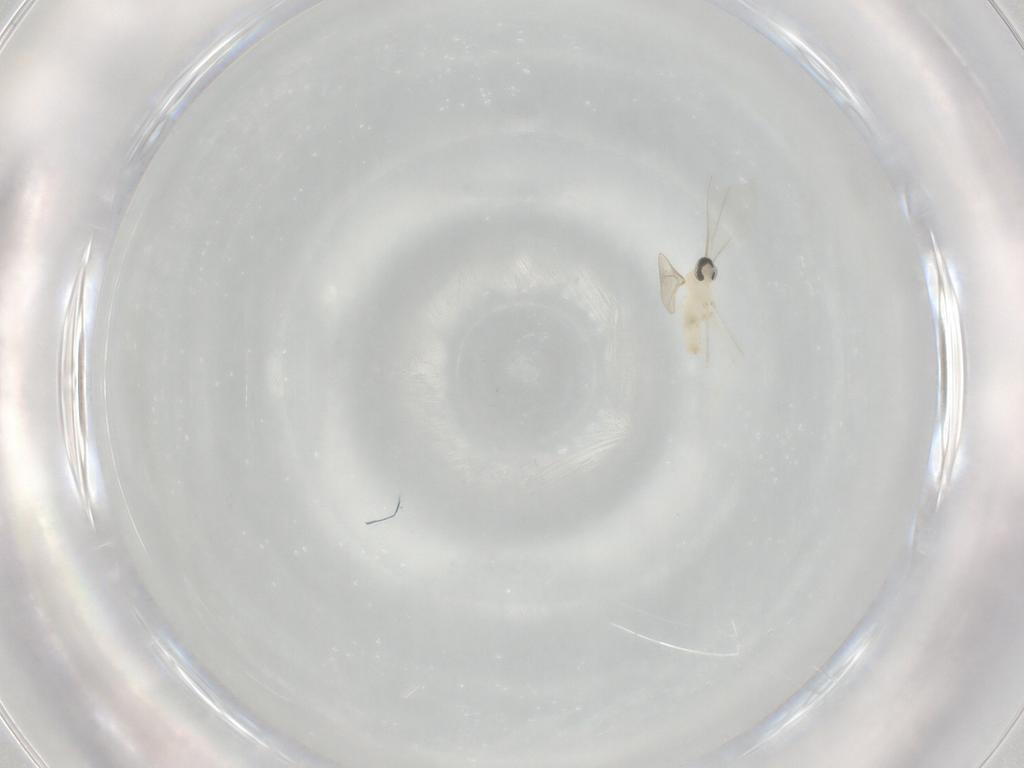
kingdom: Animalia
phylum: Arthropoda
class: Insecta
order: Diptera
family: Cecidomyiidae
